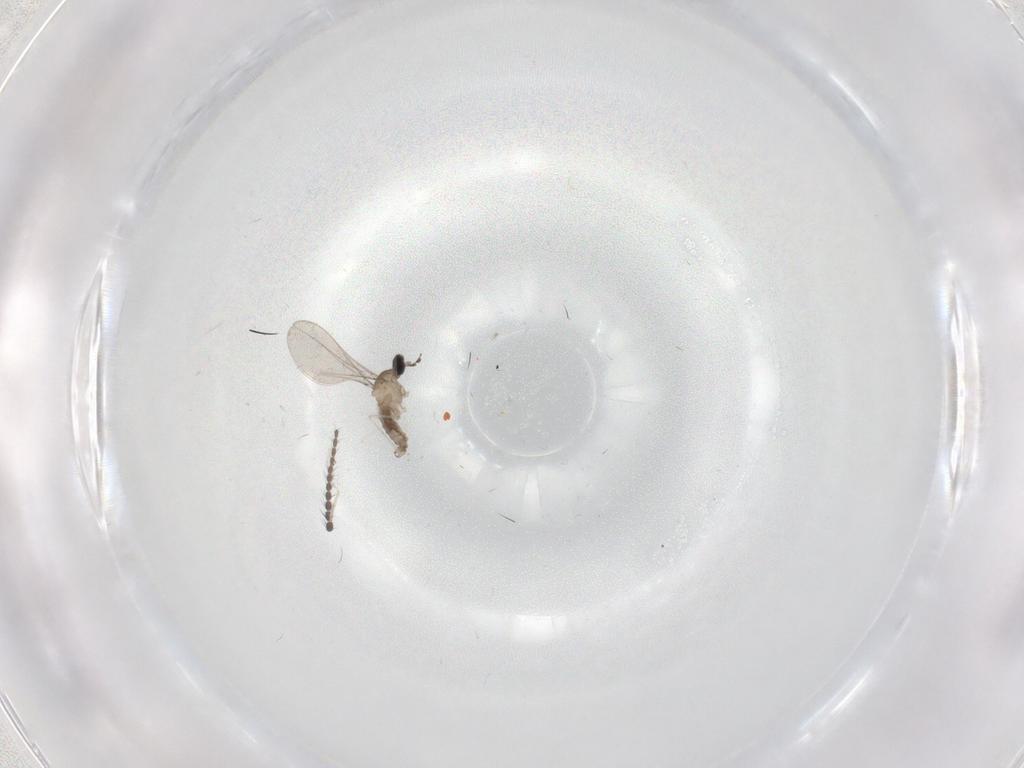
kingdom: Animalia
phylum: Arthropoda
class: Insecta
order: Diptera
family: Cecidomyiidae
